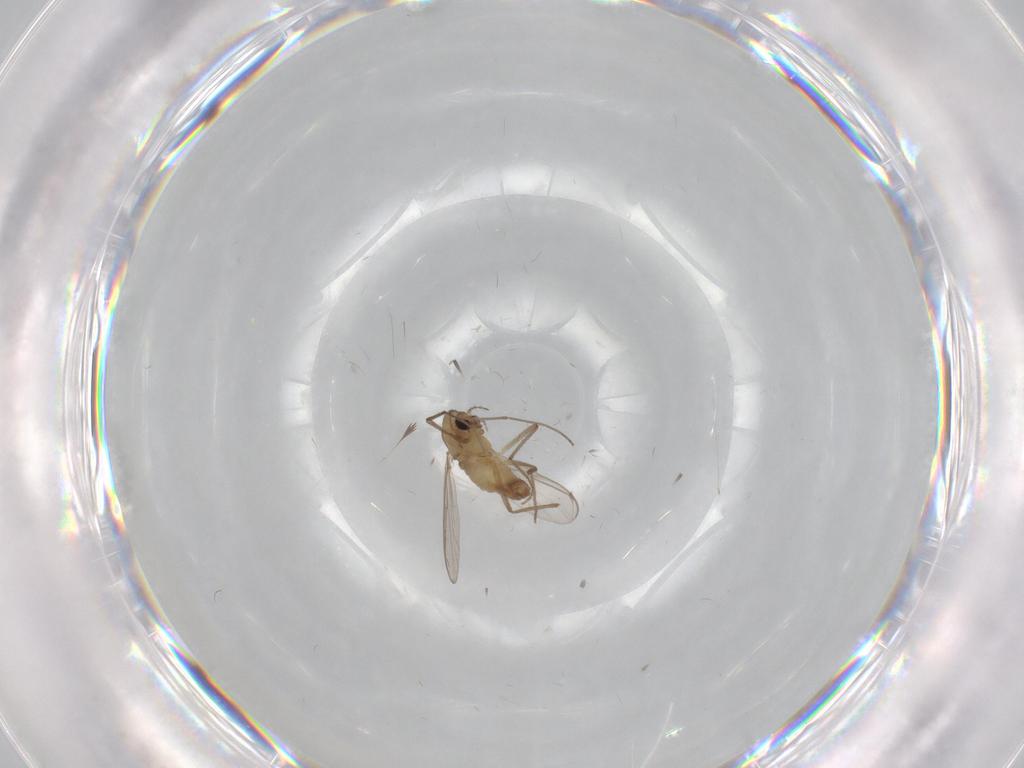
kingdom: Animalia
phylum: Arthropoda
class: Insecta
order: Diptera
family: Chironomidae
